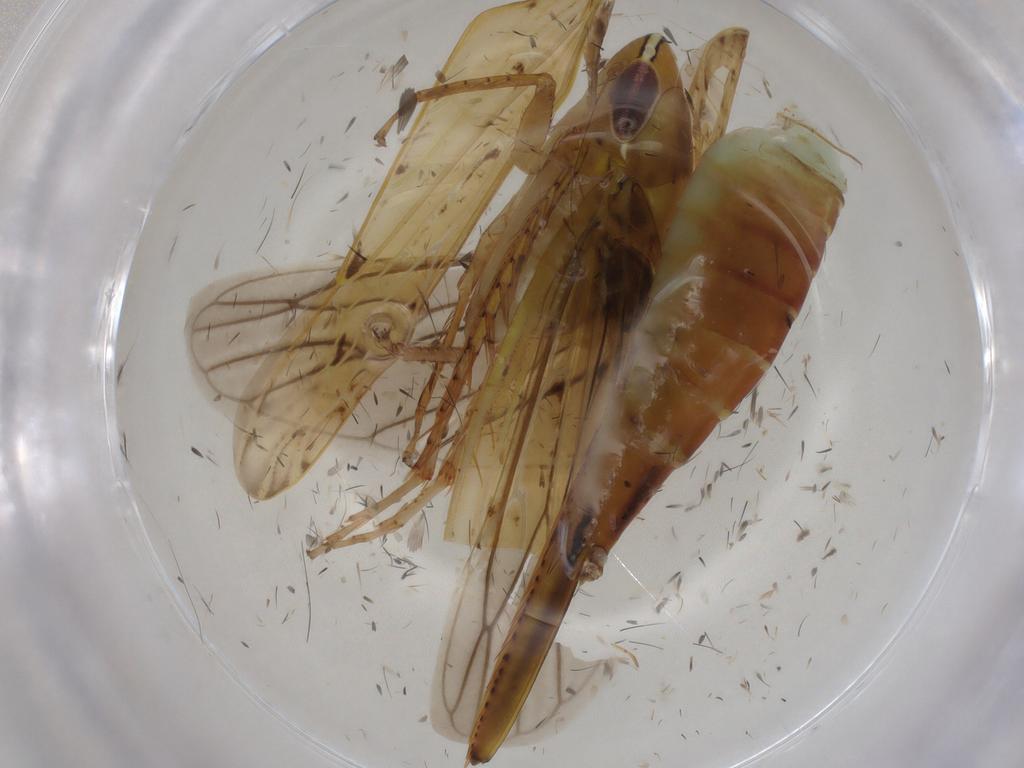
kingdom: Animalia
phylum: Arthropoda
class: Insecta
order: Hemiptera
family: Cicadellidae
